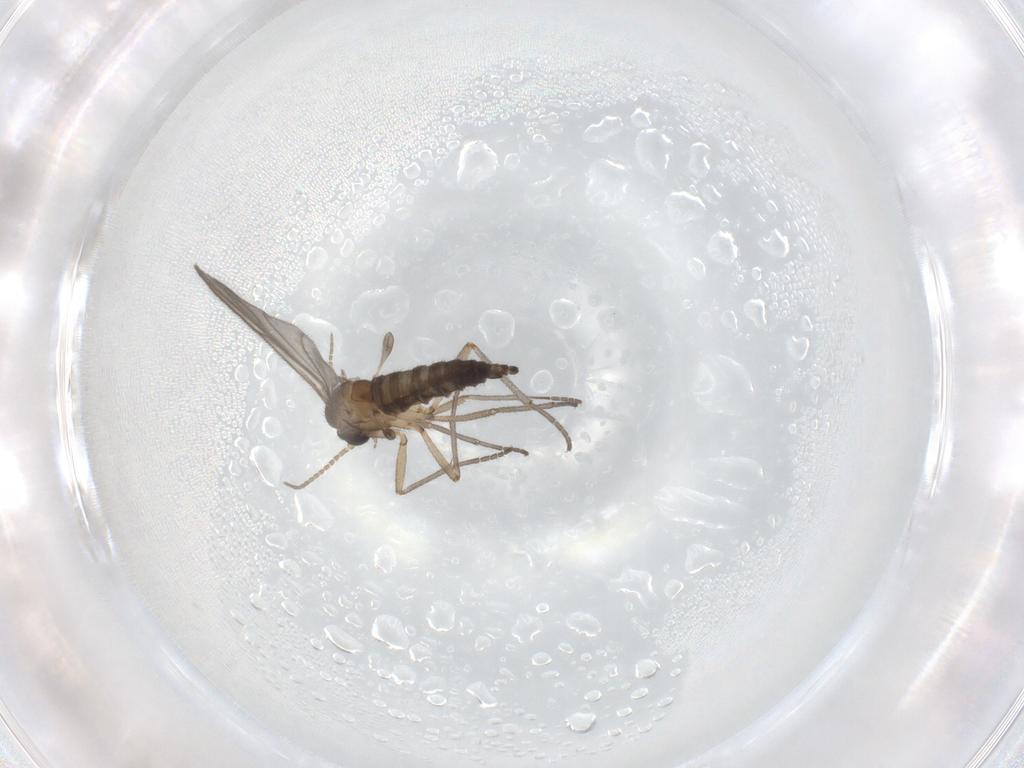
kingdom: Animalia
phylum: Arthropoda
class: Insecta
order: Diptera
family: Sciaridae
